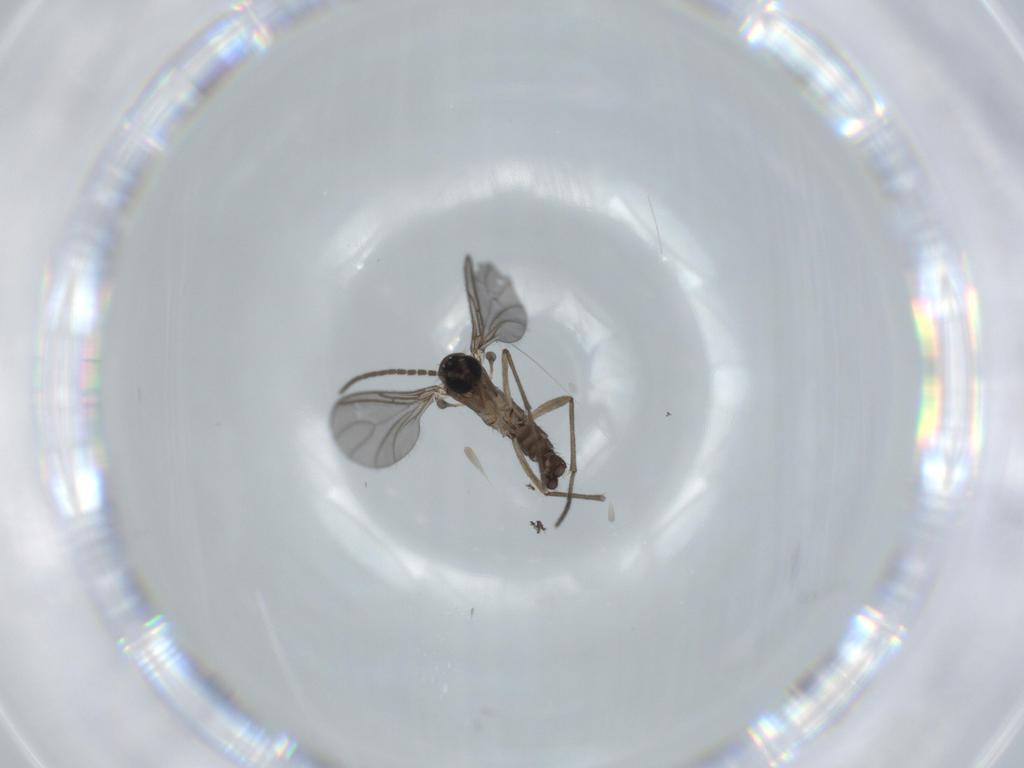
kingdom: Animalia
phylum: Arthropoda
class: Insecta
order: Diptera
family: Sciaridae
